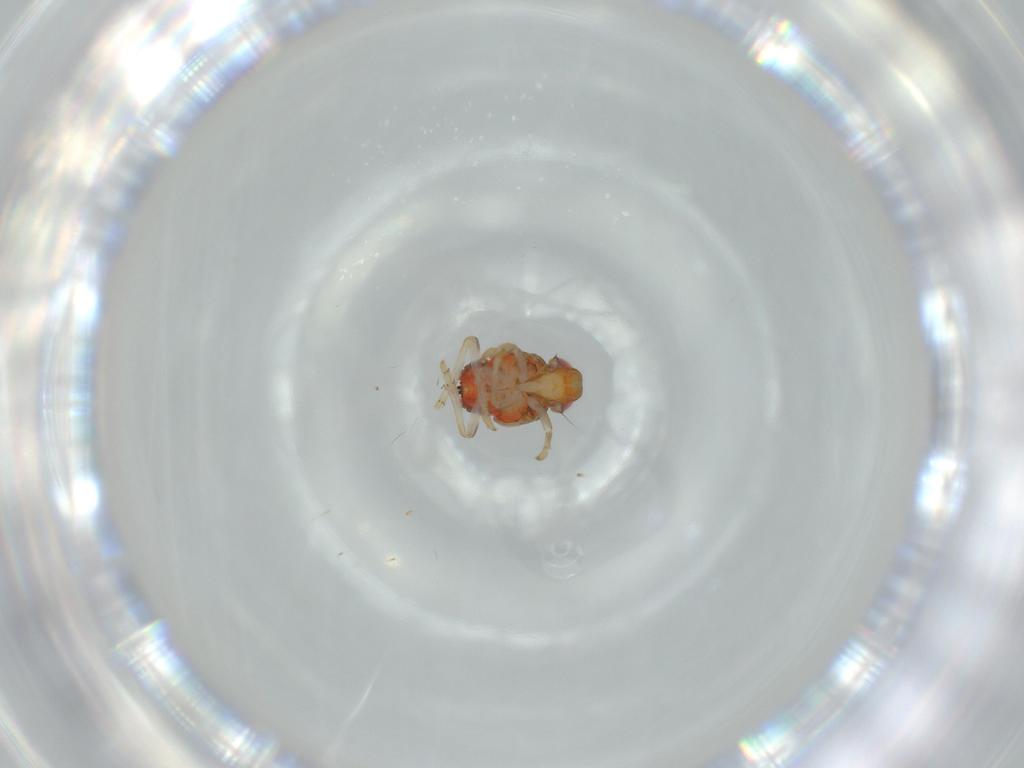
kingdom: Animalia
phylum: Arthropoda
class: Insecta
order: Hemiptera
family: Issidae
